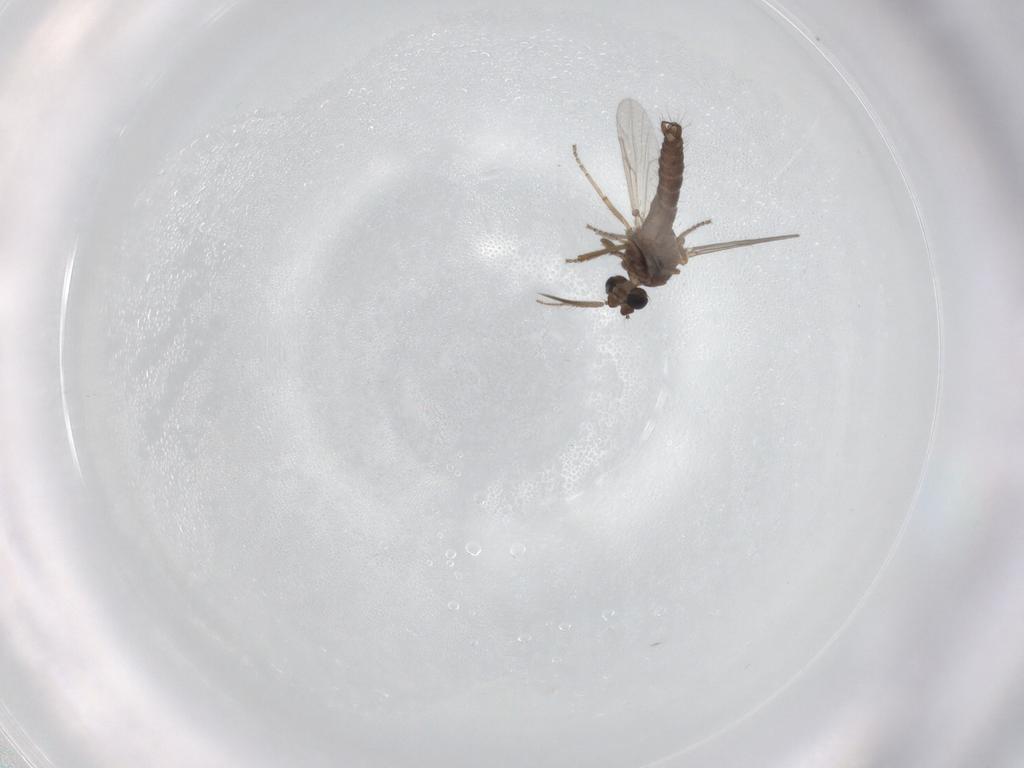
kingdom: Animalia
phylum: Arthropoda
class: Insecta
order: Diptera
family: Ceratopogonidae
